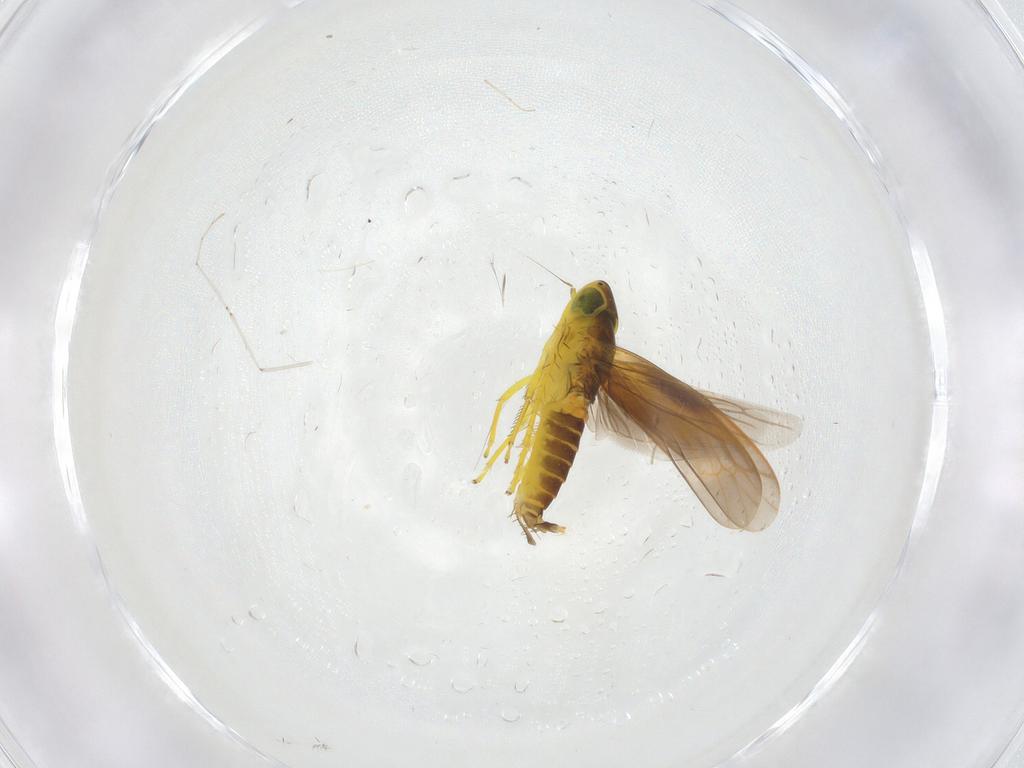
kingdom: Animalia
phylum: Arthropoda
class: Insecta
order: Hemiptera
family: Cicadellidae
